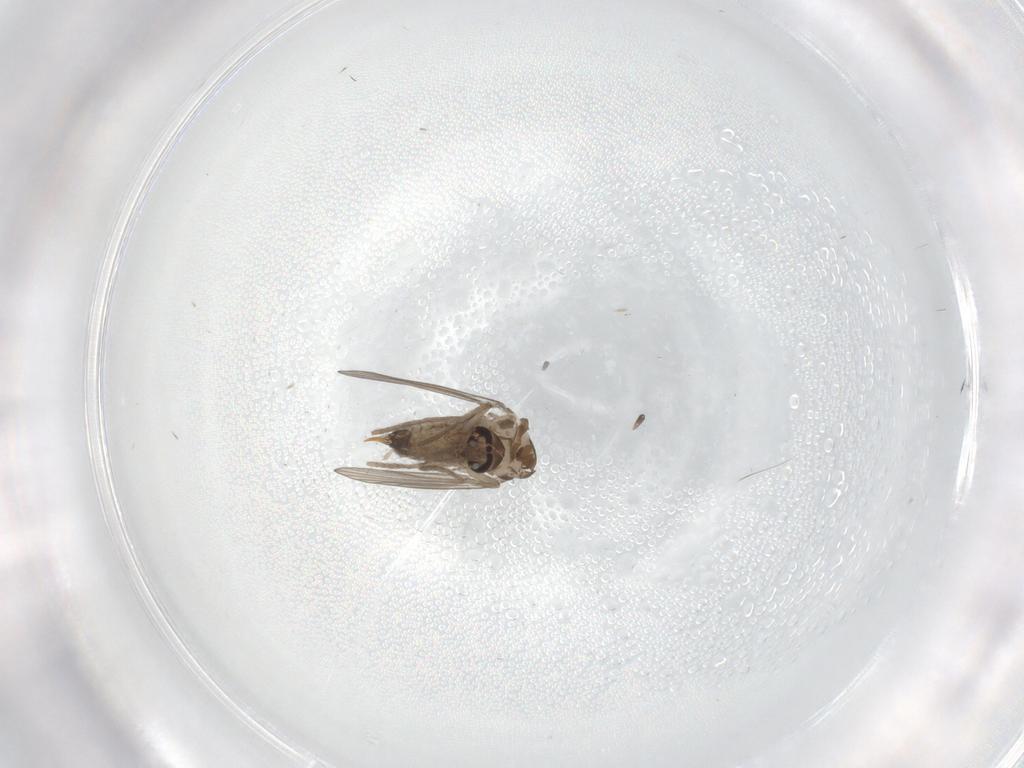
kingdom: Animalia
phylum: Arthropoda
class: Insecta
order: Diptera
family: Psychodidae
